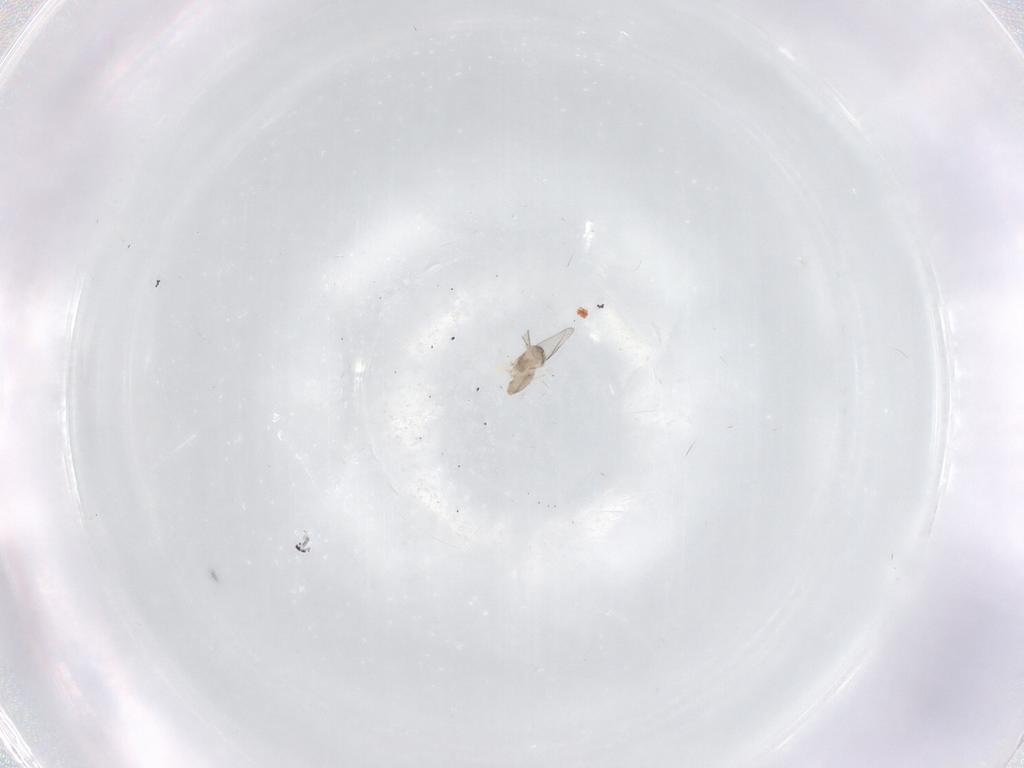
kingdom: Animalia
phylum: Arthropoda
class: Insecta
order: Diptera
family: Cecidomyiidae
